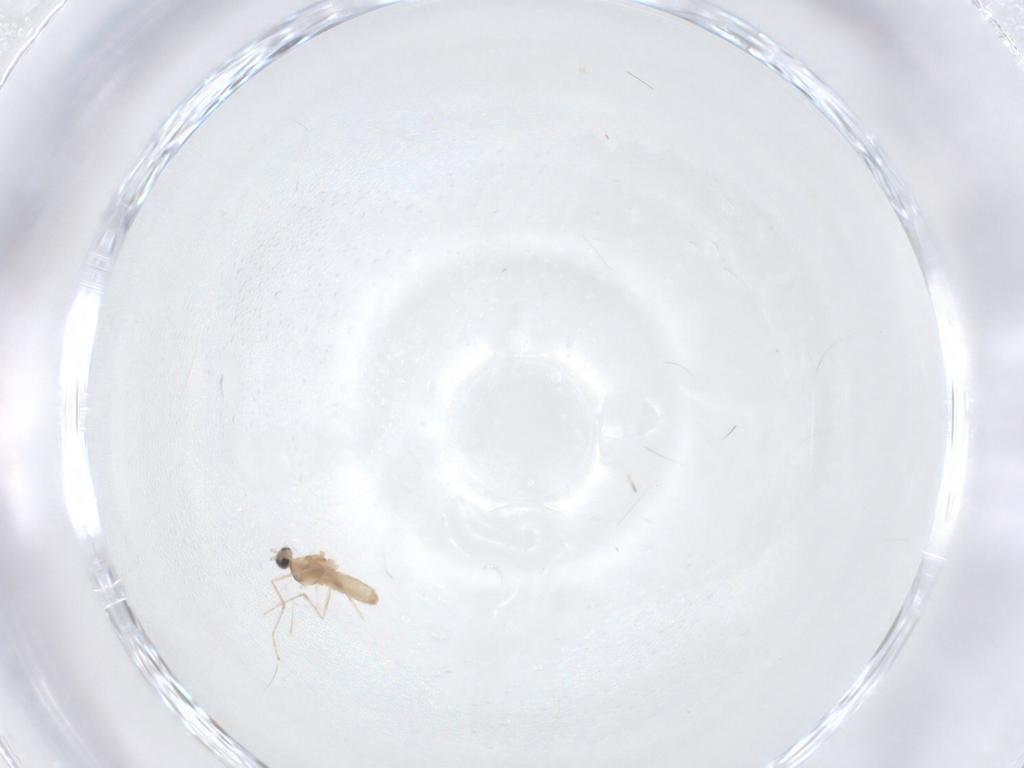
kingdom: Animalia
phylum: Arthropoda
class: Insecta
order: Diptera
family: Cecidomyiidae
